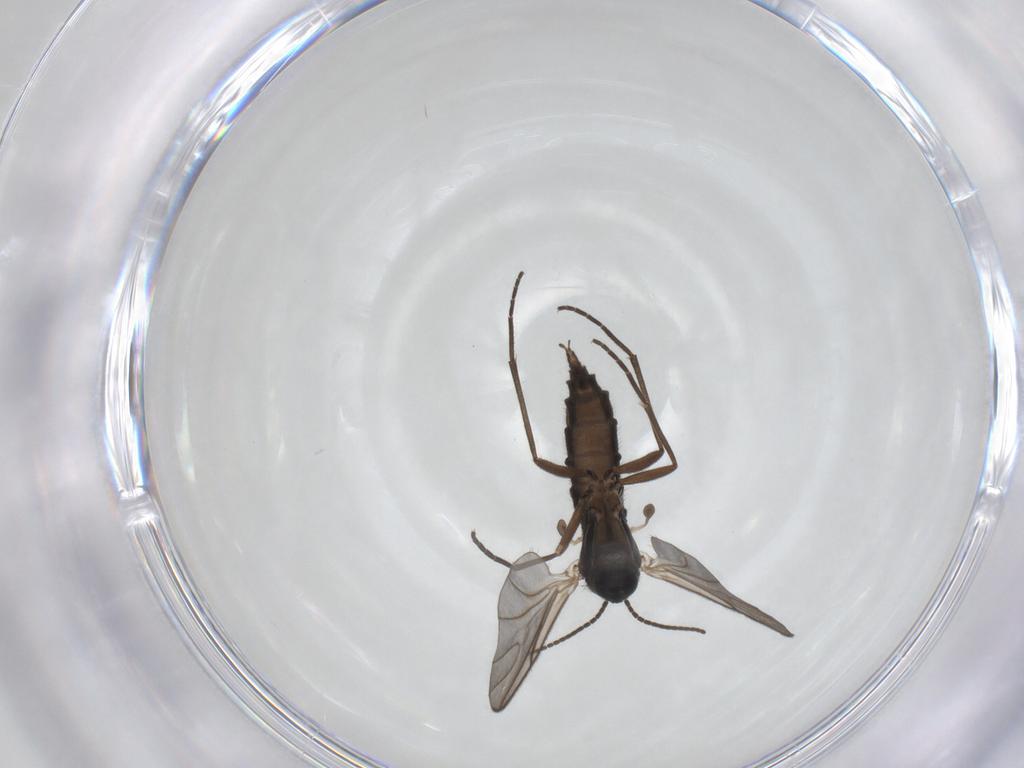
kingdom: Animalia
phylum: Arthropoda
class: Insecta
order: Diptera
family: Sciaridae
